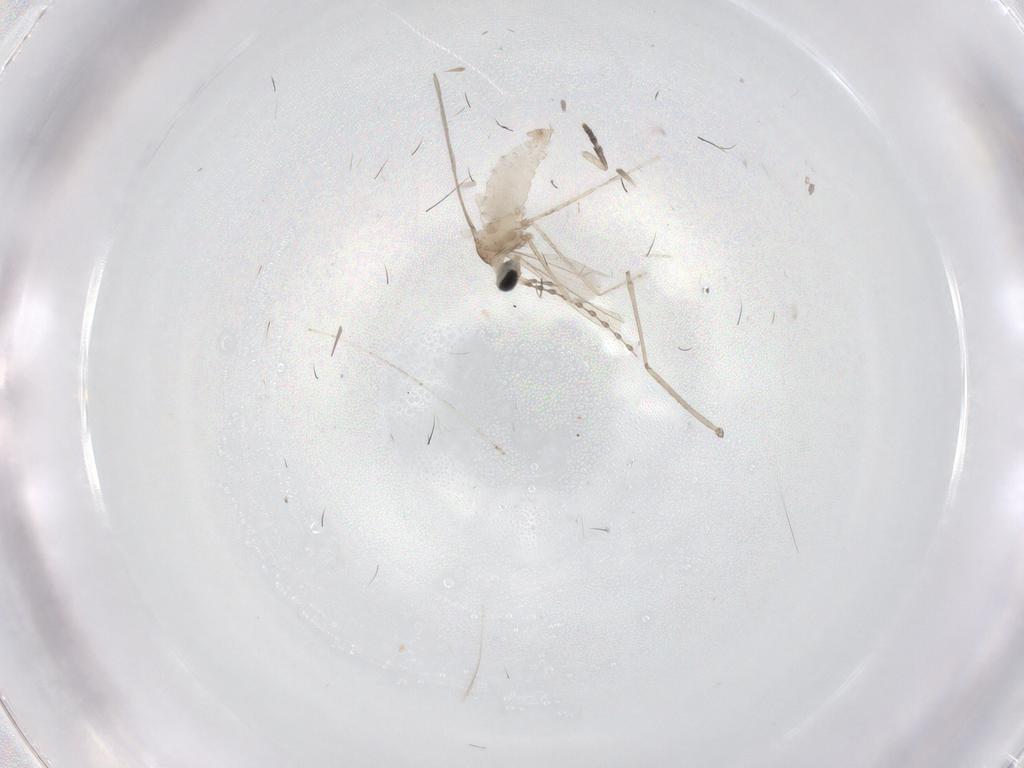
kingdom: Animalia
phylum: Arthropoda
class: Insecta
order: Diptera
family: Cecidomyiidae
